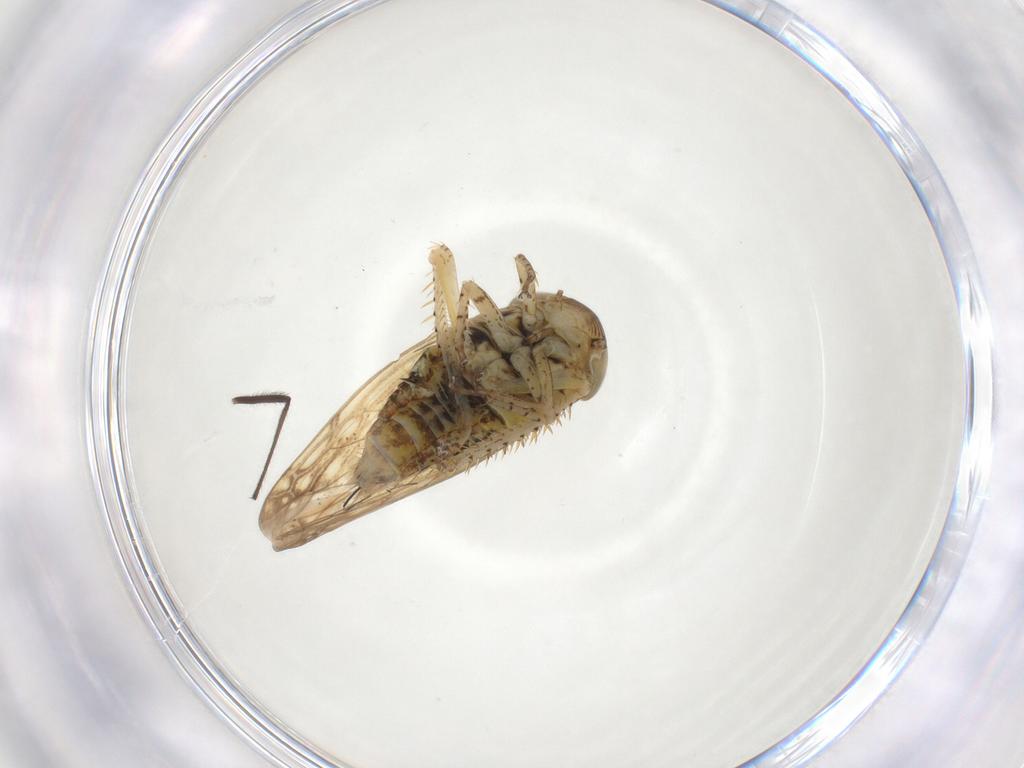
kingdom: Animalia
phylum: Arthropoda
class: Insecta
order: Hemiptera
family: Cicadellidae
